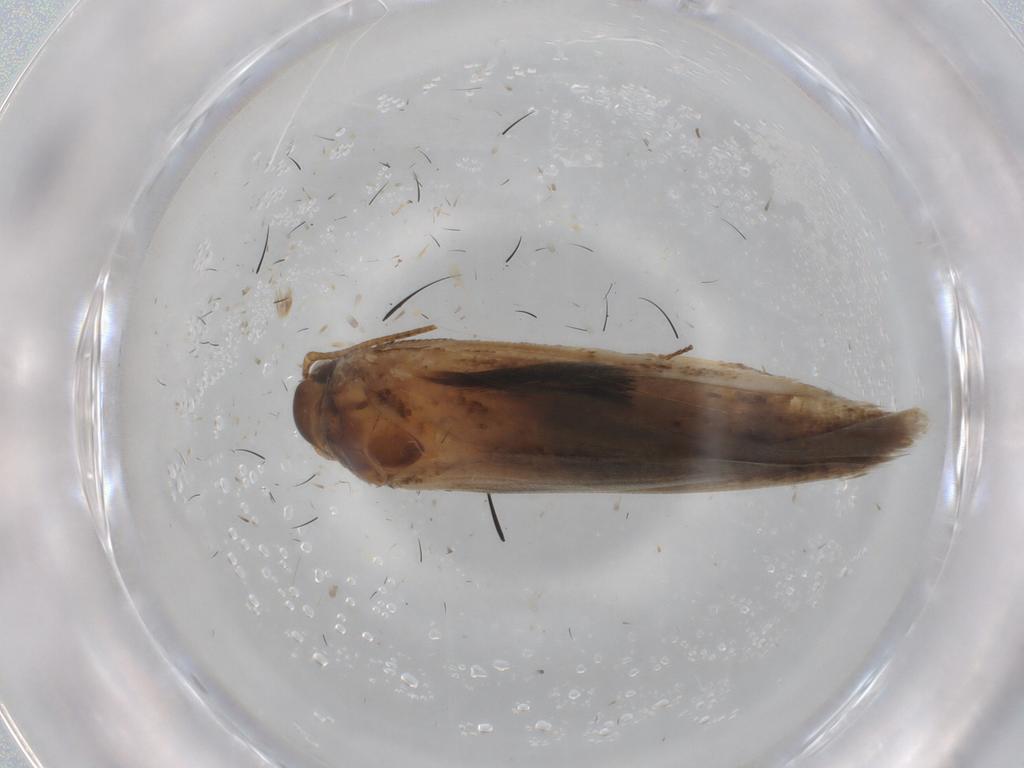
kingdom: Animalia
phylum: Arthropoda
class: Insecta
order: Lepidoptera
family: Gelechiidae
